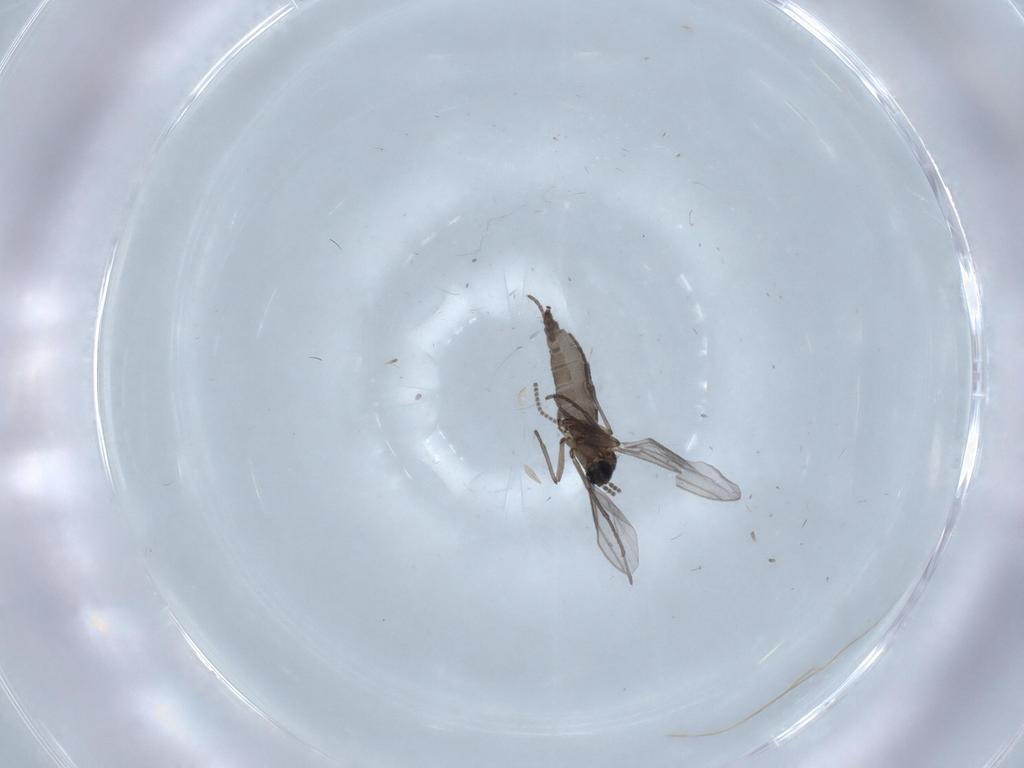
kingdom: Animalia
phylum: Arthropoda
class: Insecta
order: Diptera
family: Chironomidae
